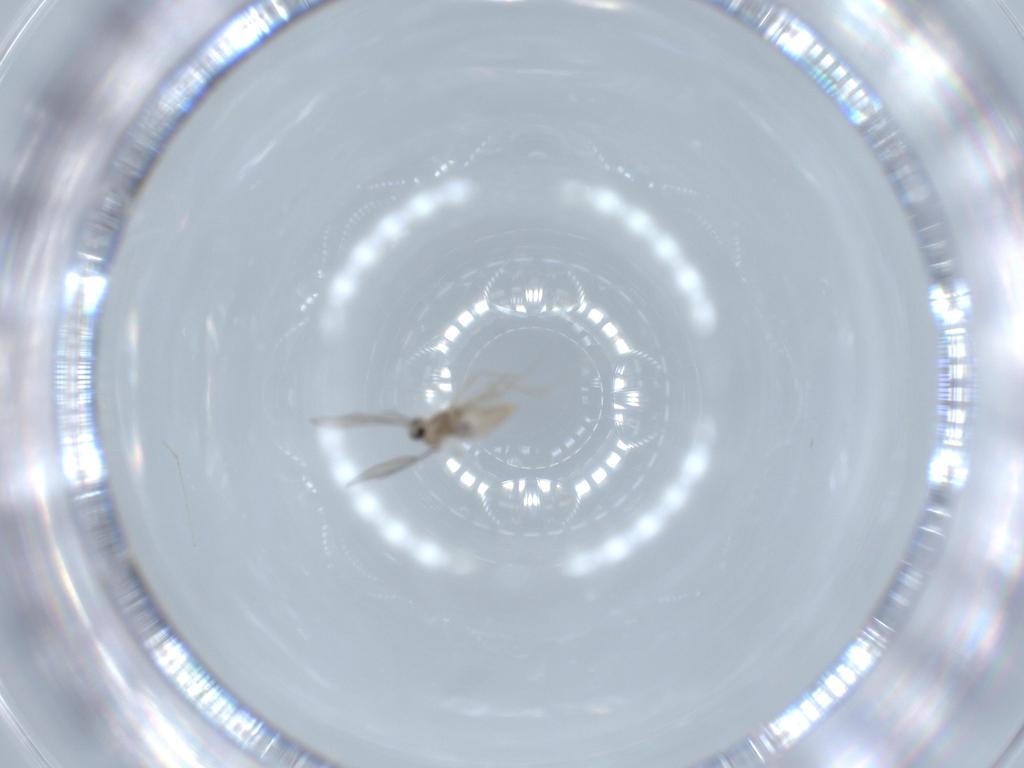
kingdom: Animalia
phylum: Arthropoda
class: Insecta
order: Diptera
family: Cecidomyiidae
